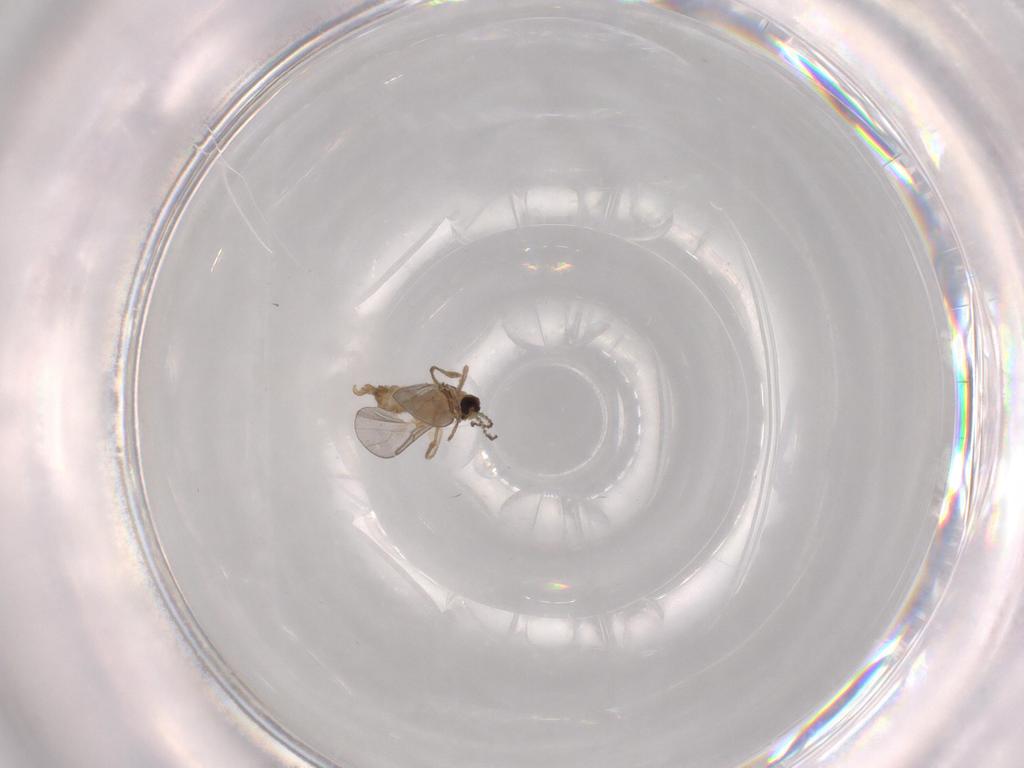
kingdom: Animalia
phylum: Arthropoda
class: Insecta
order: Diptera
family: Cecidomyiidae
